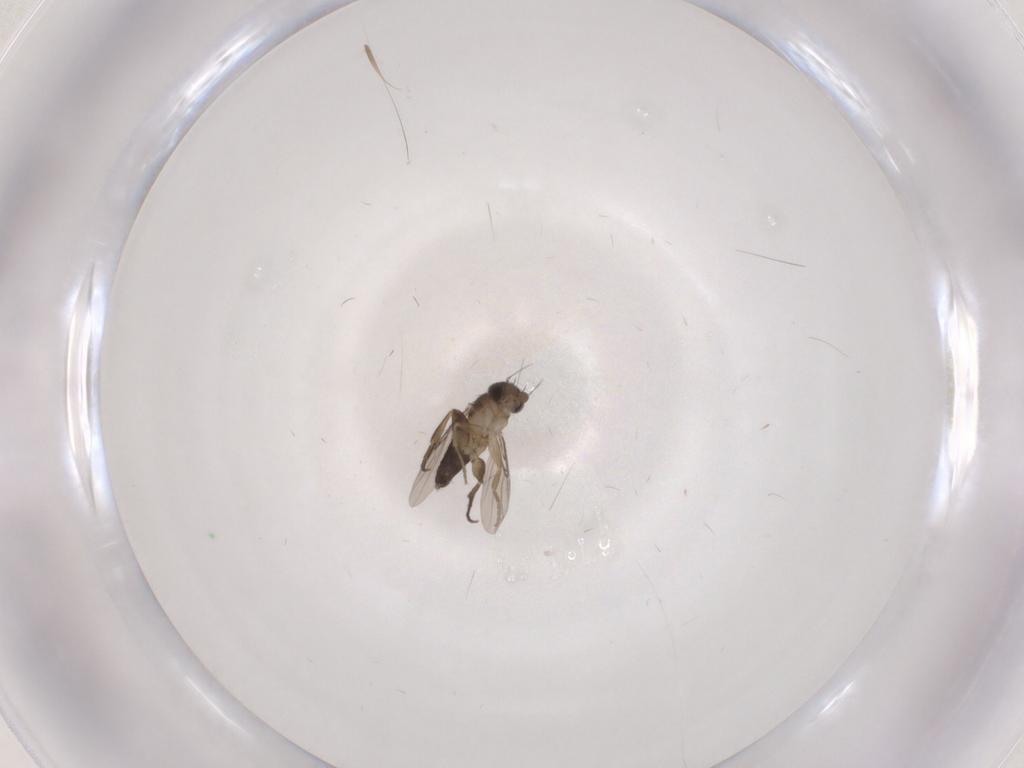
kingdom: Animalia
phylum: Arthropoda
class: Insecta
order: Diptera
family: Phoridae
